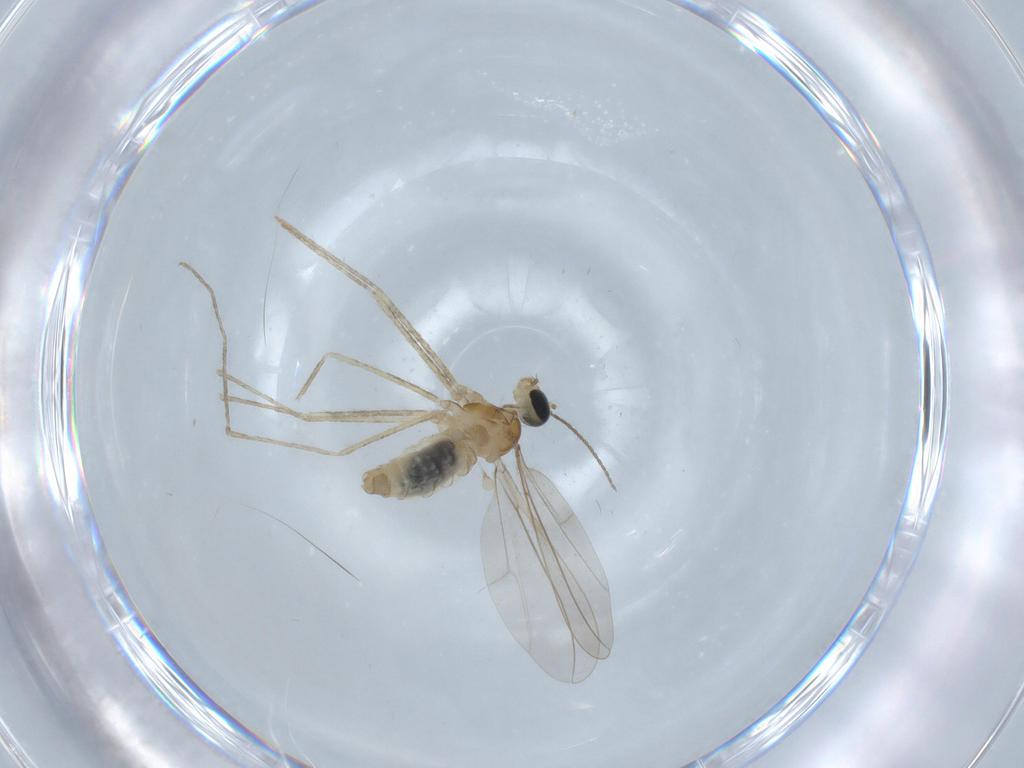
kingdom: Animalia
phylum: Arthropoda
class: Insecta
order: Diptera
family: Cecidomyiidae
